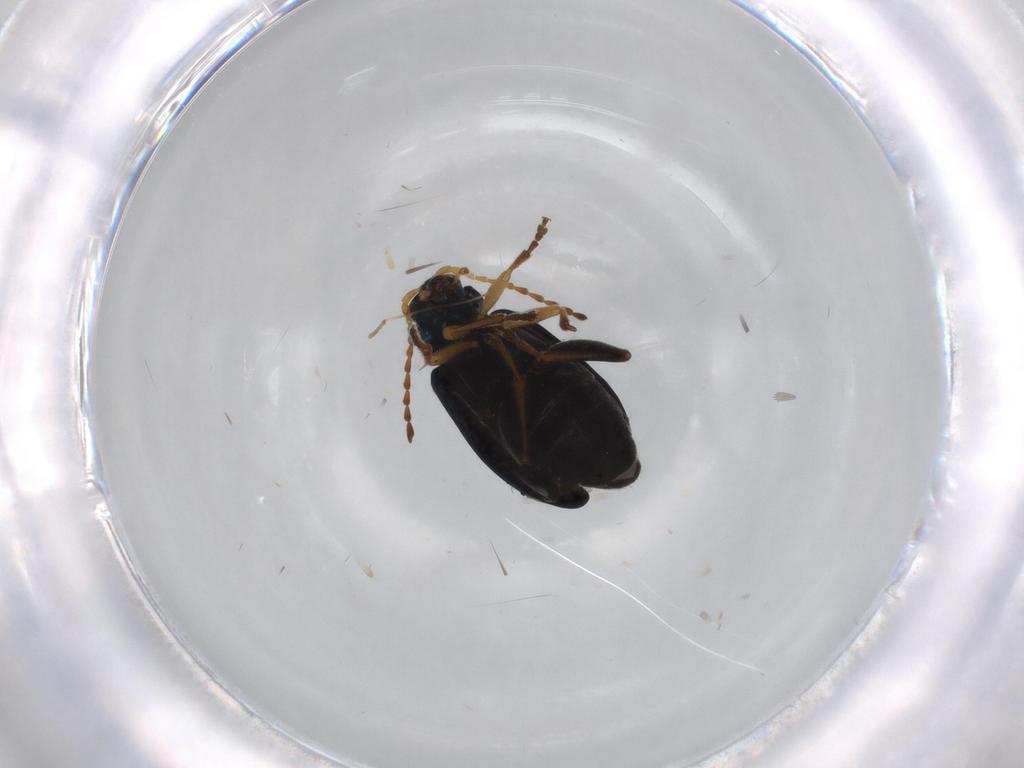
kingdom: Animalia
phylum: Arthropoda
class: Insecta
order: Coleoptera
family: Chrysomelidae
